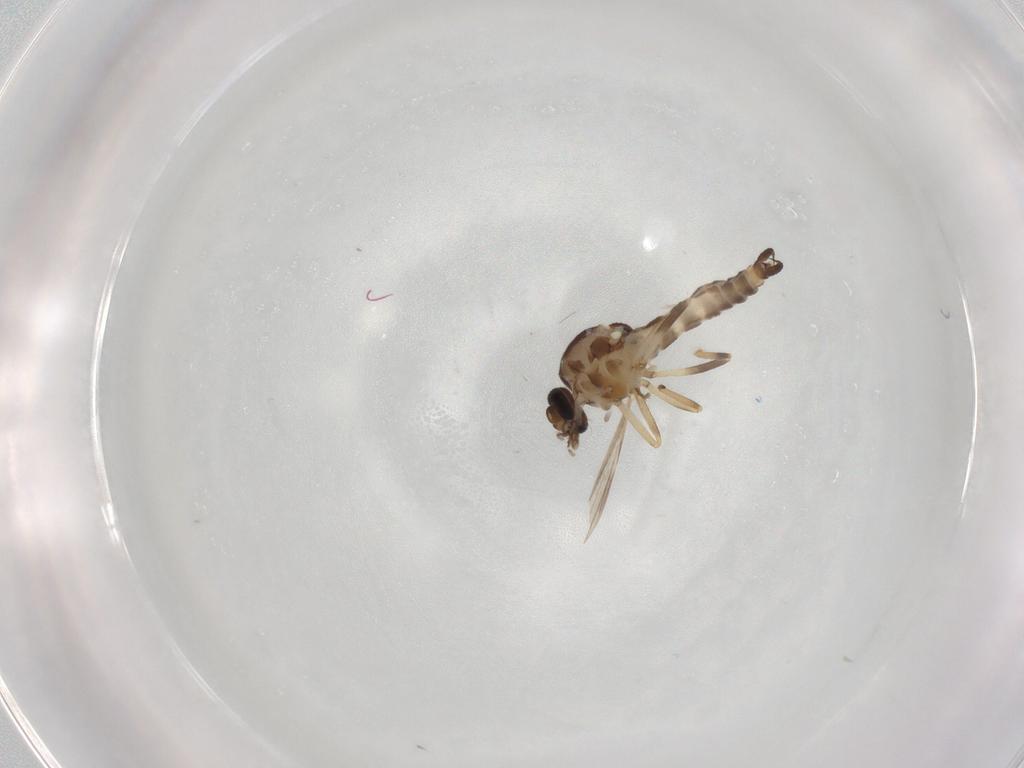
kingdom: Animalia
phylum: Arthropoda
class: Insecta
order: Diptera
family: Ceratopogonidae
